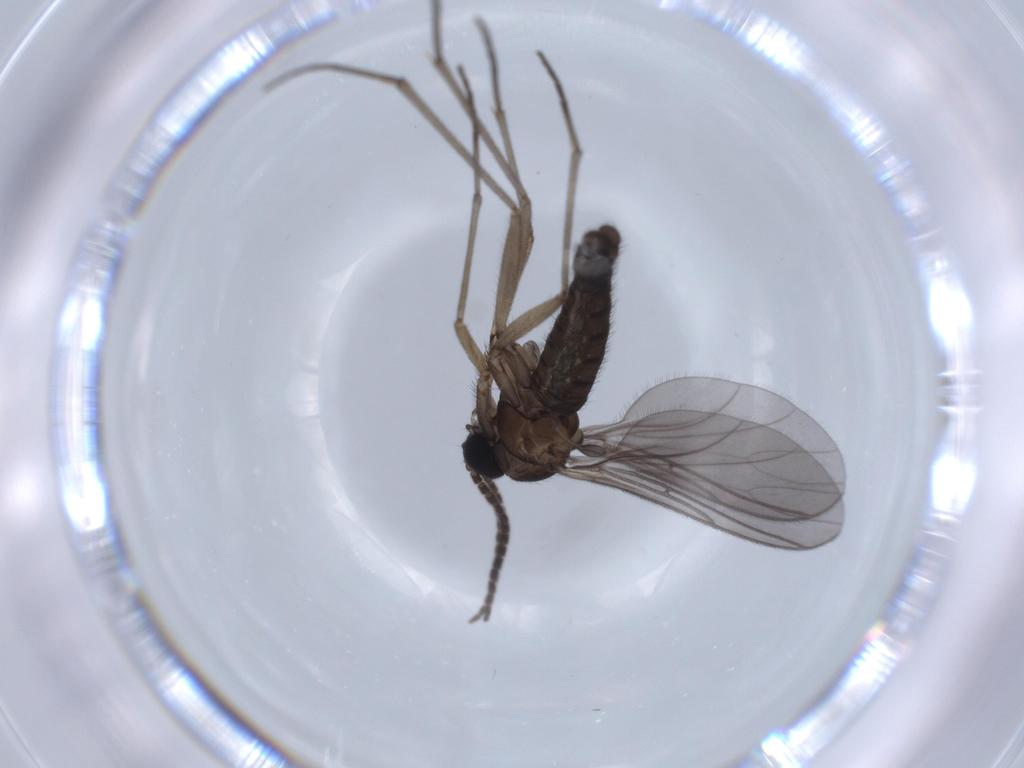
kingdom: Animalia
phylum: Arthropoda
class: Insecta
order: Diptera
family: Sciaridae
